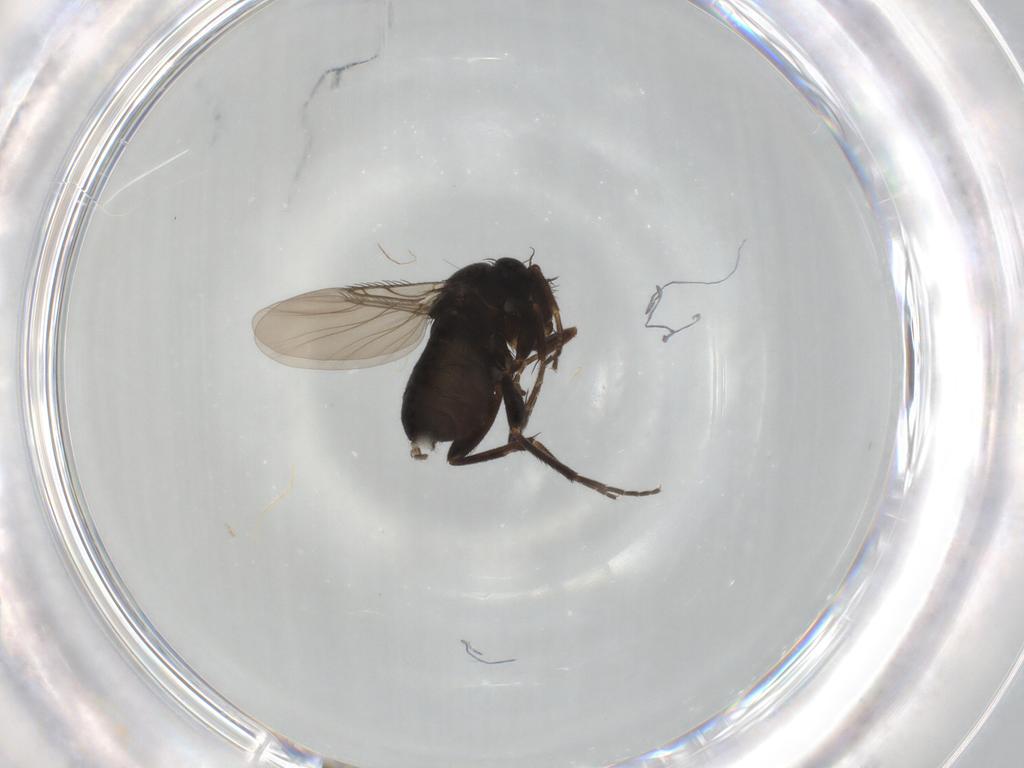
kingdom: Animalia
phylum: Arthropoda
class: Insecta
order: Diptera
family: Phoridae
